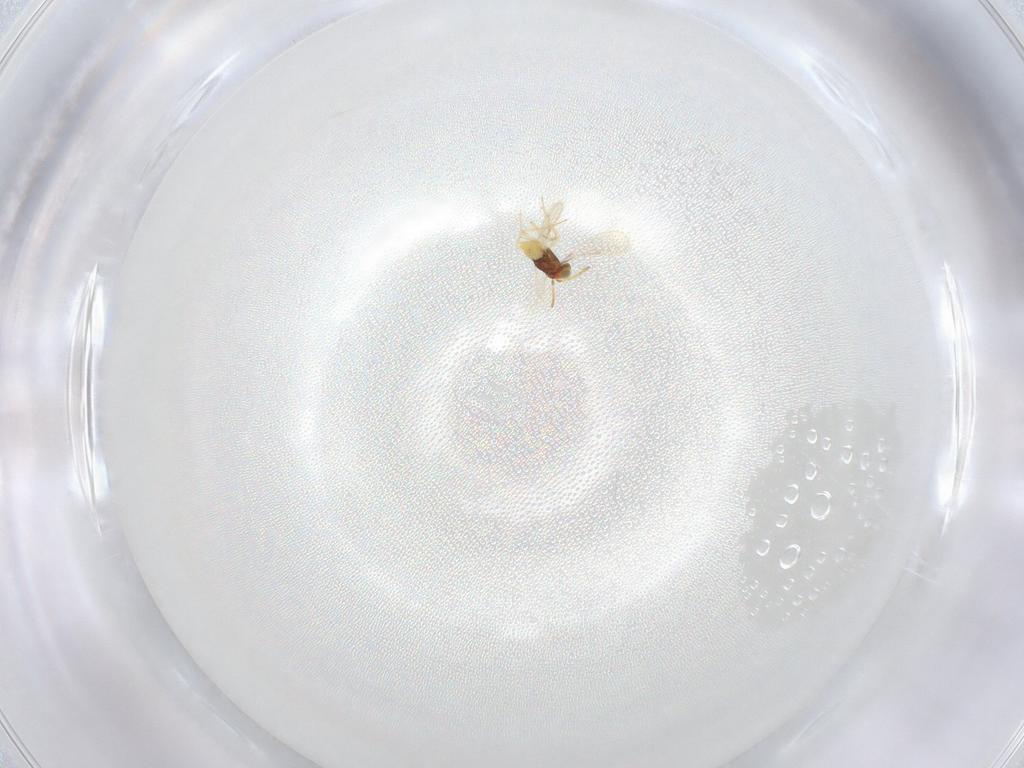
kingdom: Animalia
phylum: Arthropoda
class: Insecta
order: Hymenoptera
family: Aphelinidae
